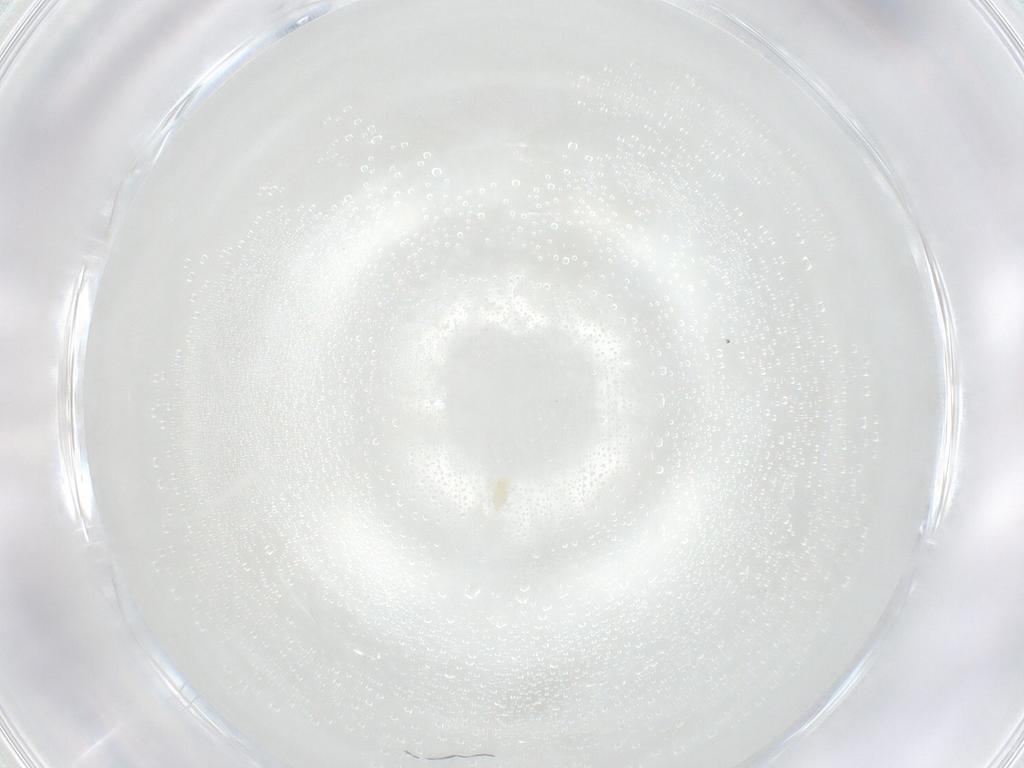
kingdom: Animalia
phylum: Arthropoda
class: Arachnida
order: Trombidiformes
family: Eupodidae
